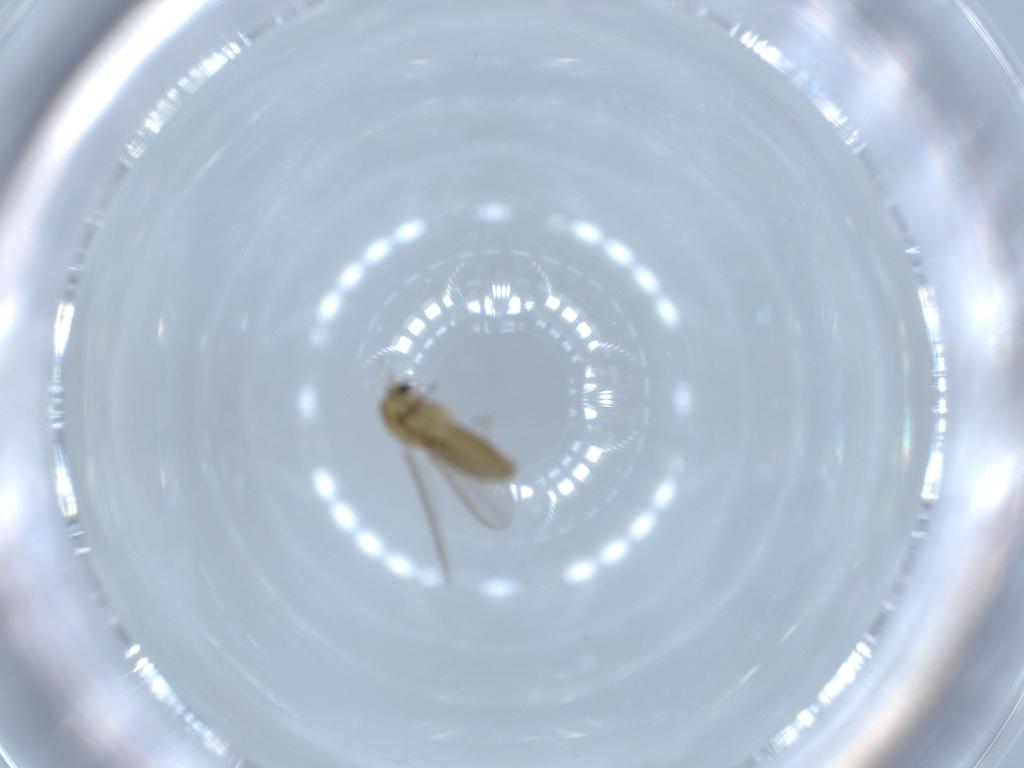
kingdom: Animalia
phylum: Arthropoda
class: Insecta
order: Diptera
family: Chironomidae
